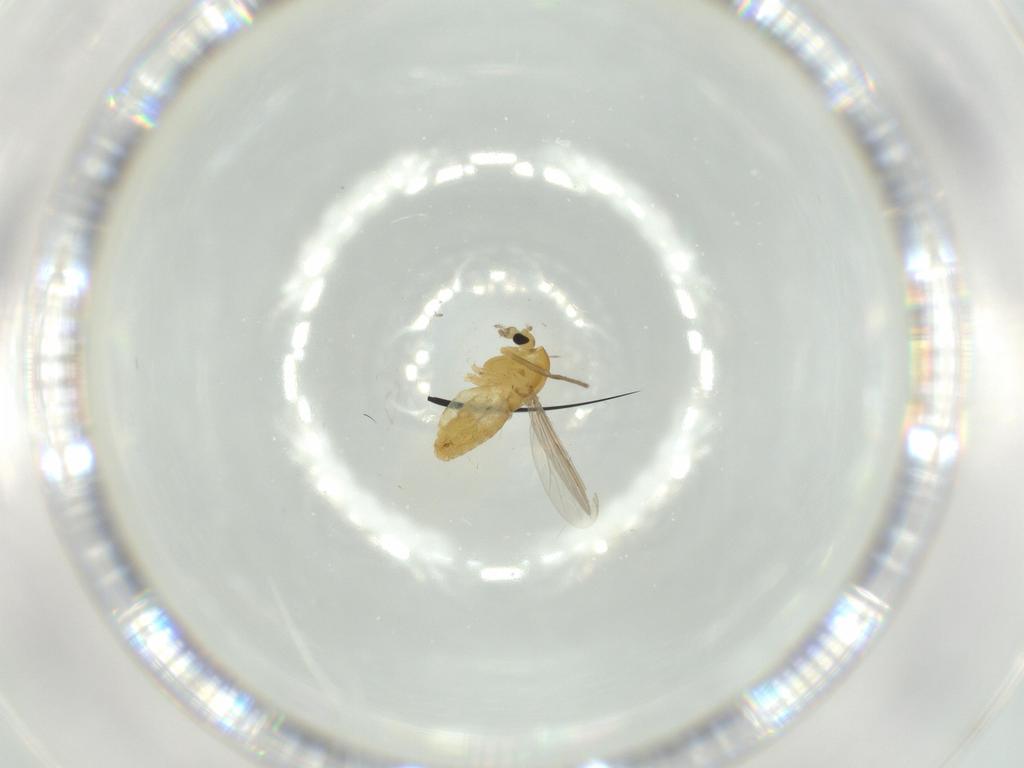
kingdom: Animalia
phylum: Arthropoda
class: Insecta
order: Diptera
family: Chironomidae
